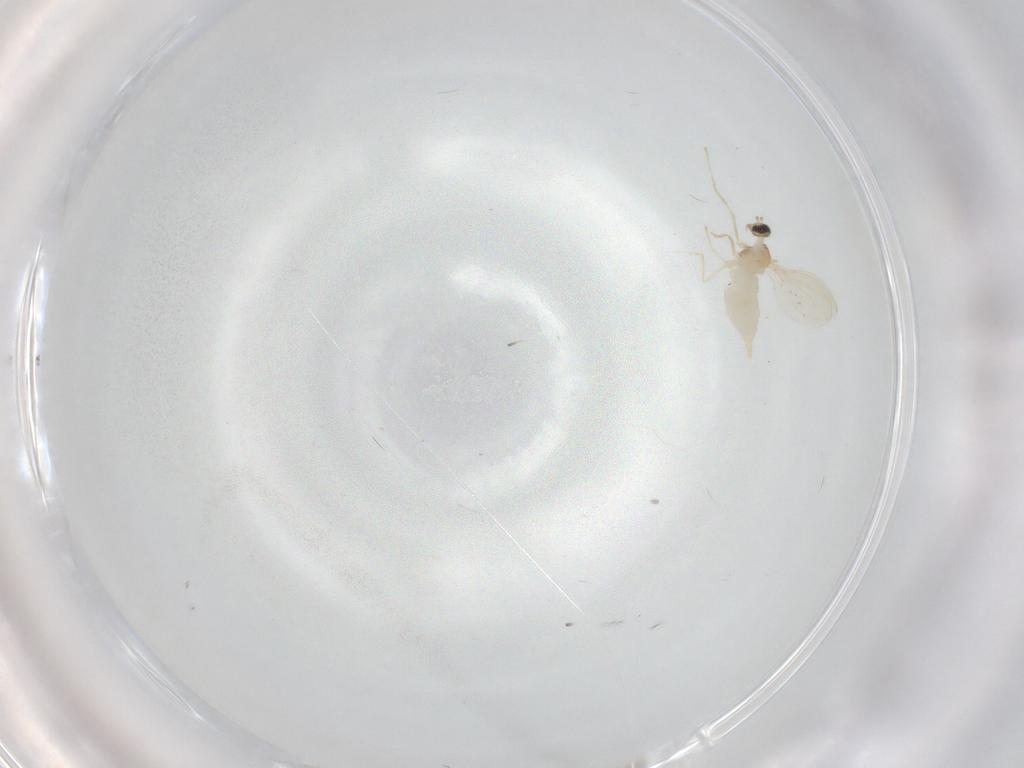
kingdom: Animalia
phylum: Arthropoda
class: Insecta
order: Diptera
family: Cecidomyiidae
